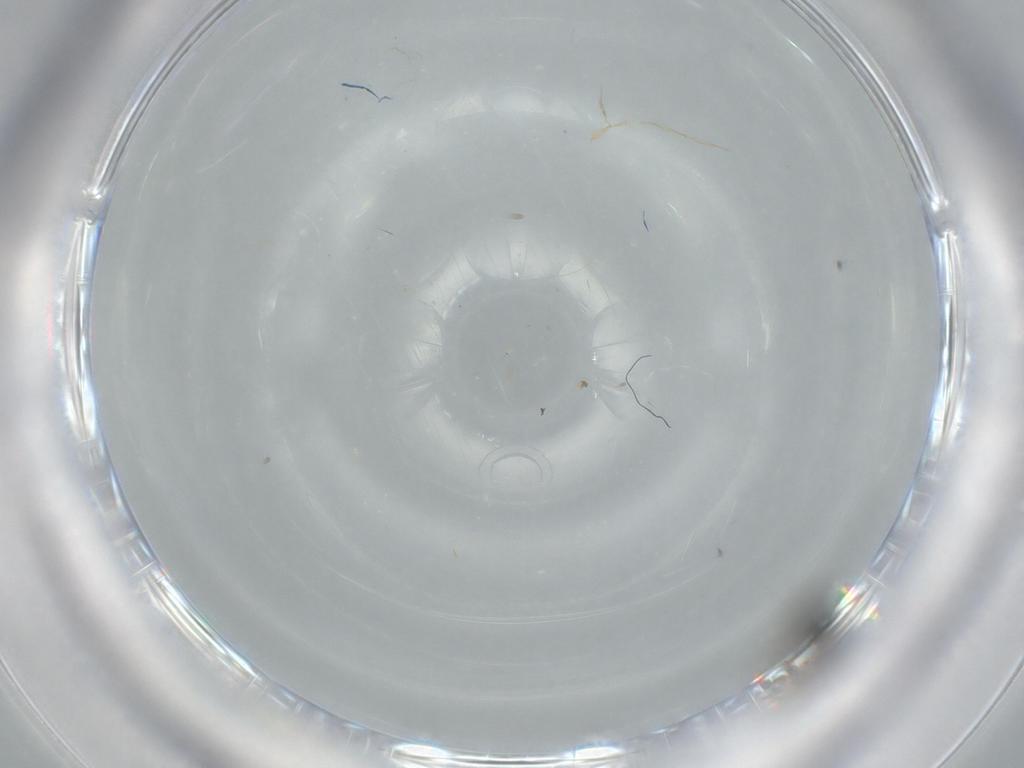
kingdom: Animalia
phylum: Arthropoda
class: Insecta
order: Hymenoptera
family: Scelionidae
